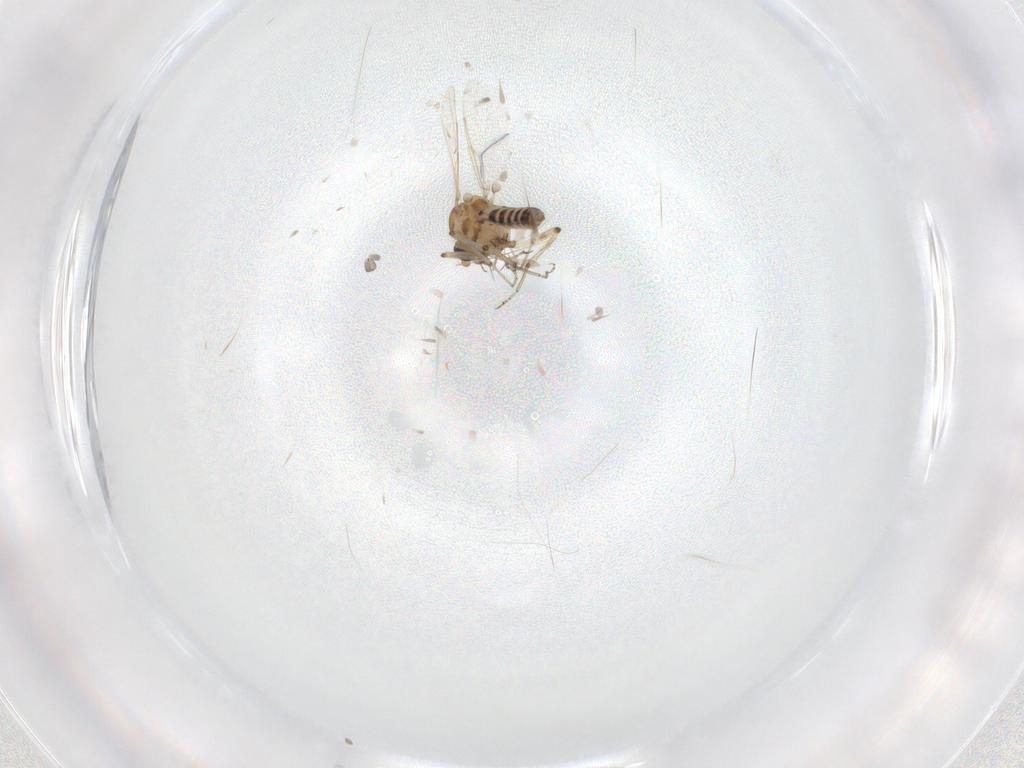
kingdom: Animalia
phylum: Arthropoda
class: Insecta
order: Diptera
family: Ceratopogonidae
